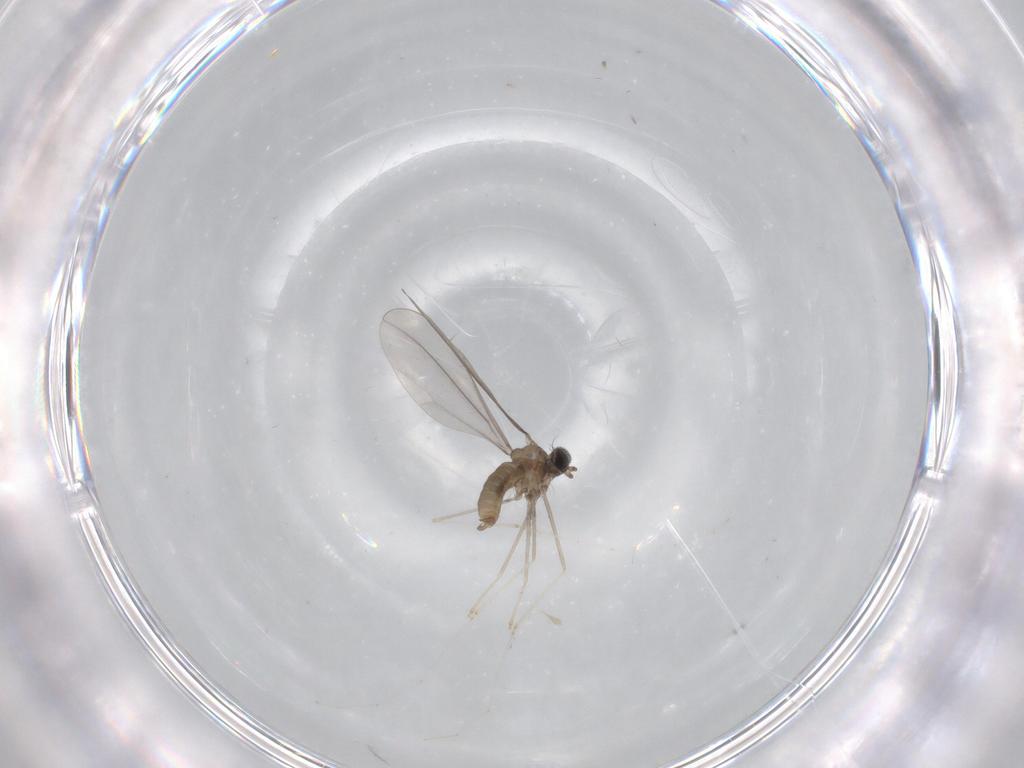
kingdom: Animalia
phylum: Arthropoda
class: Insecta
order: Diptera
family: Cecidomyiidae
